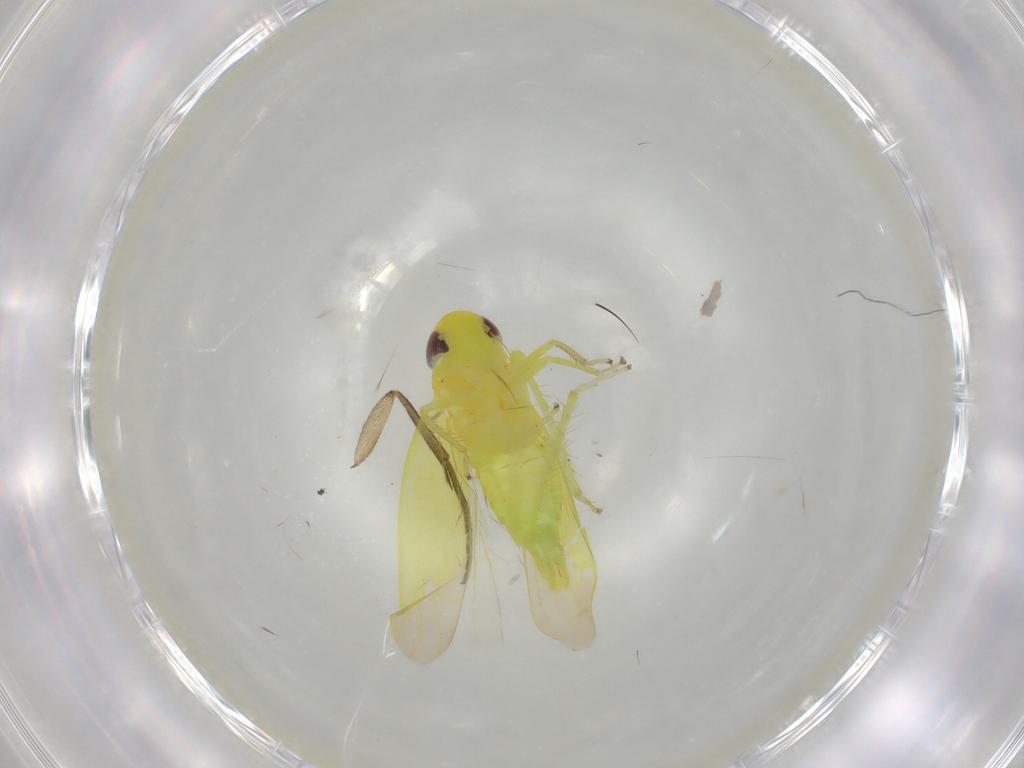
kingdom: Animalia
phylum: Arthropoda
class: Insecta
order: Hemiptera
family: Cicadellidae
